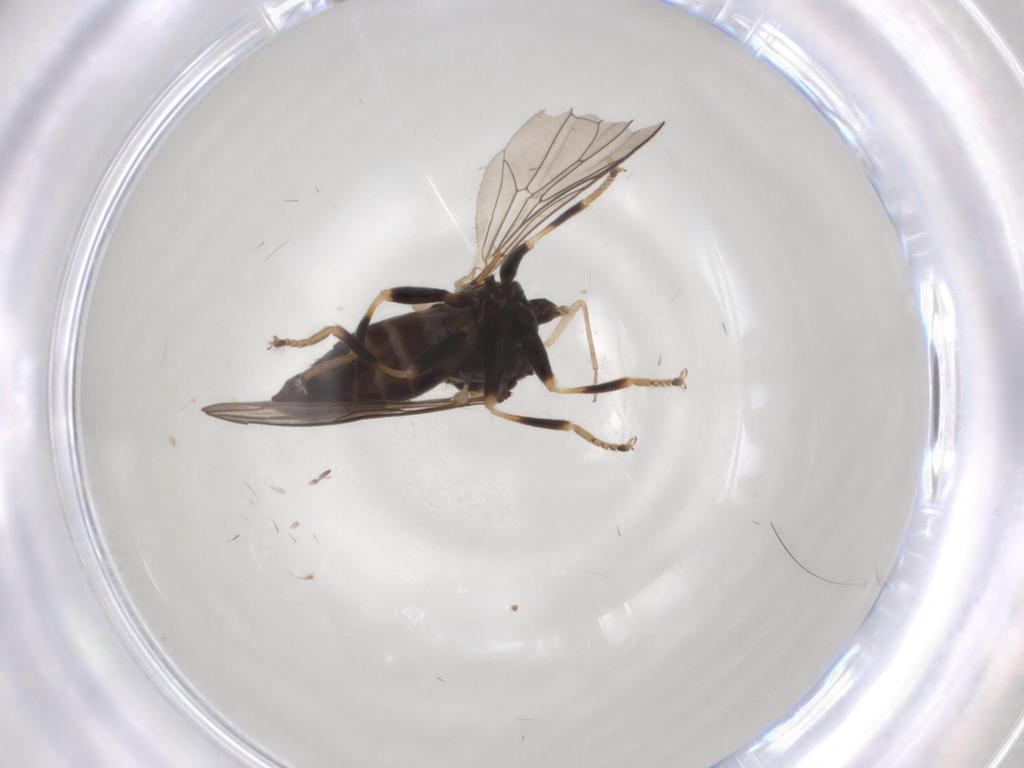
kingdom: Animalia
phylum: Arthropoda
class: Insecta
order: Diptera
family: Pipunculidae
